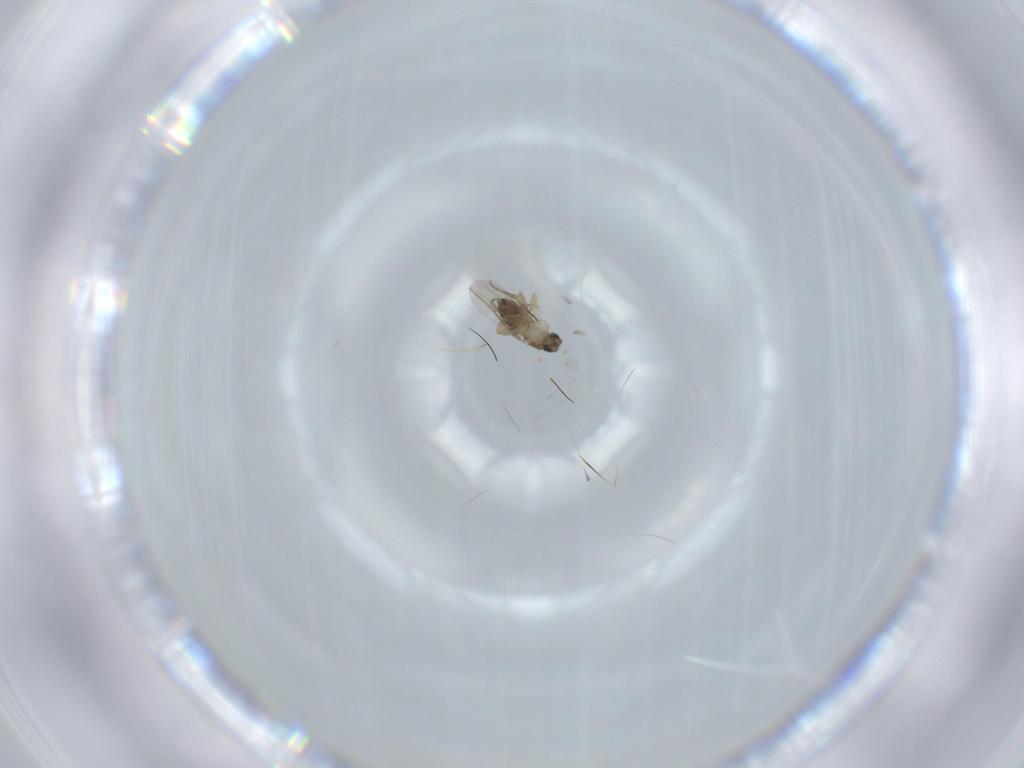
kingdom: Animalia
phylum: Arthropoda
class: Insecta
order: Diptera
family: Phoridae
